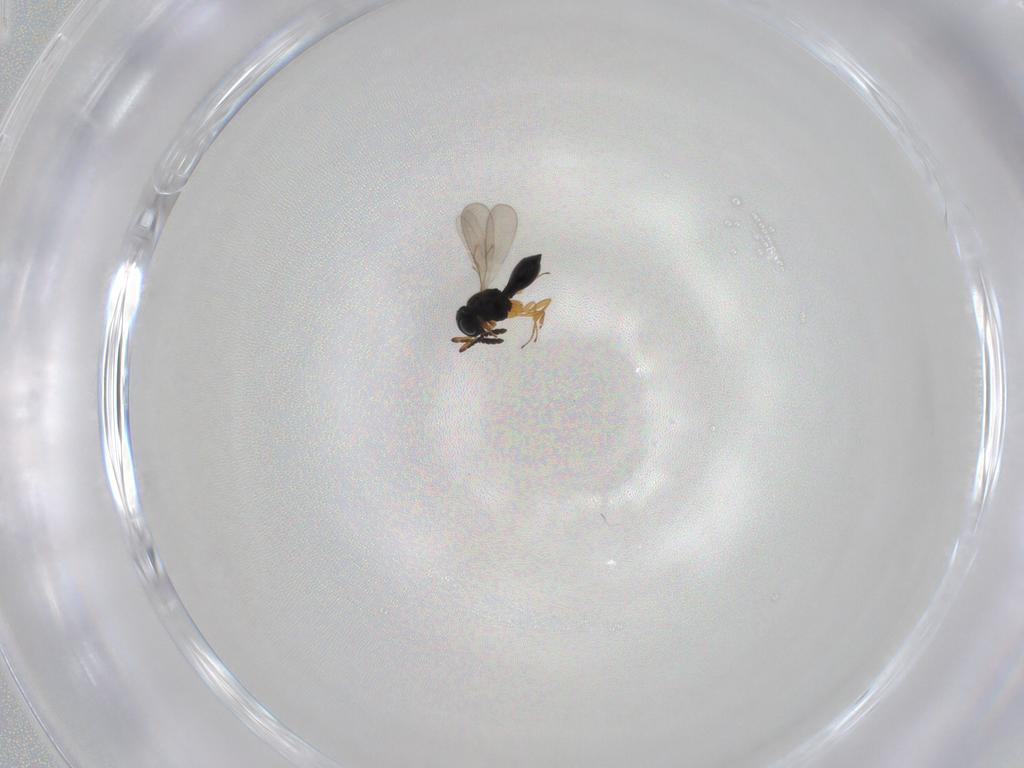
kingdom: Animalia
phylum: Arthropoda
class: Insecta
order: Hymenoptera
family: Scelionidae
